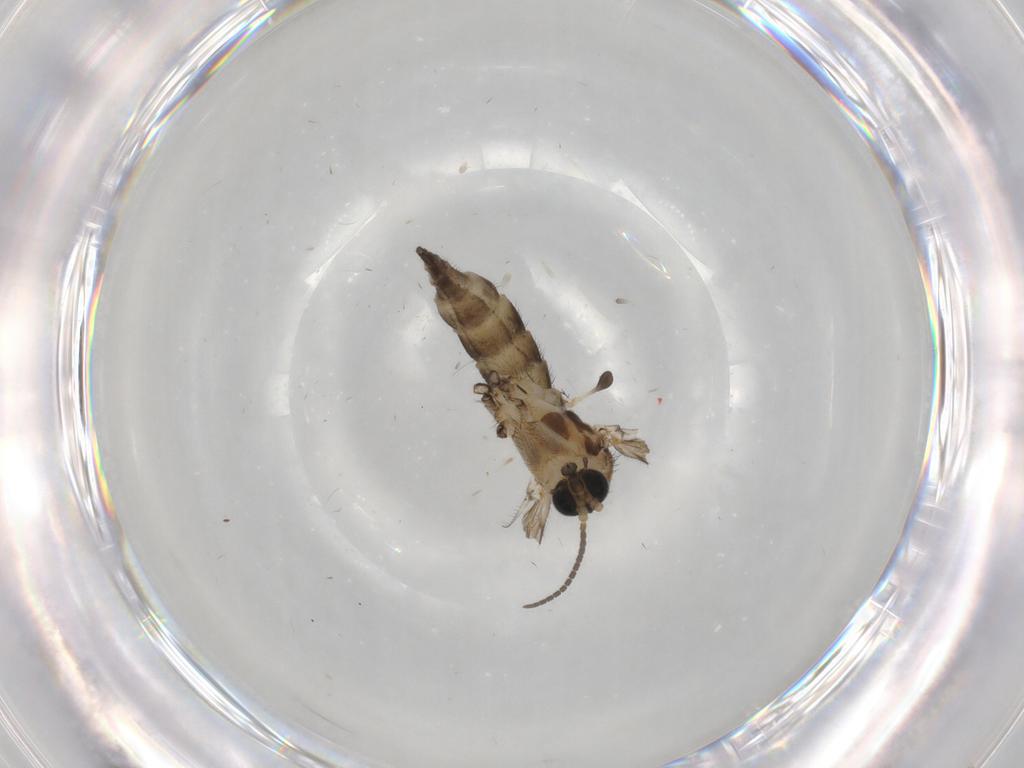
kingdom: Animalia
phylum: Arthropoda
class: Insecta
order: Diptera
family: Sciaridae
